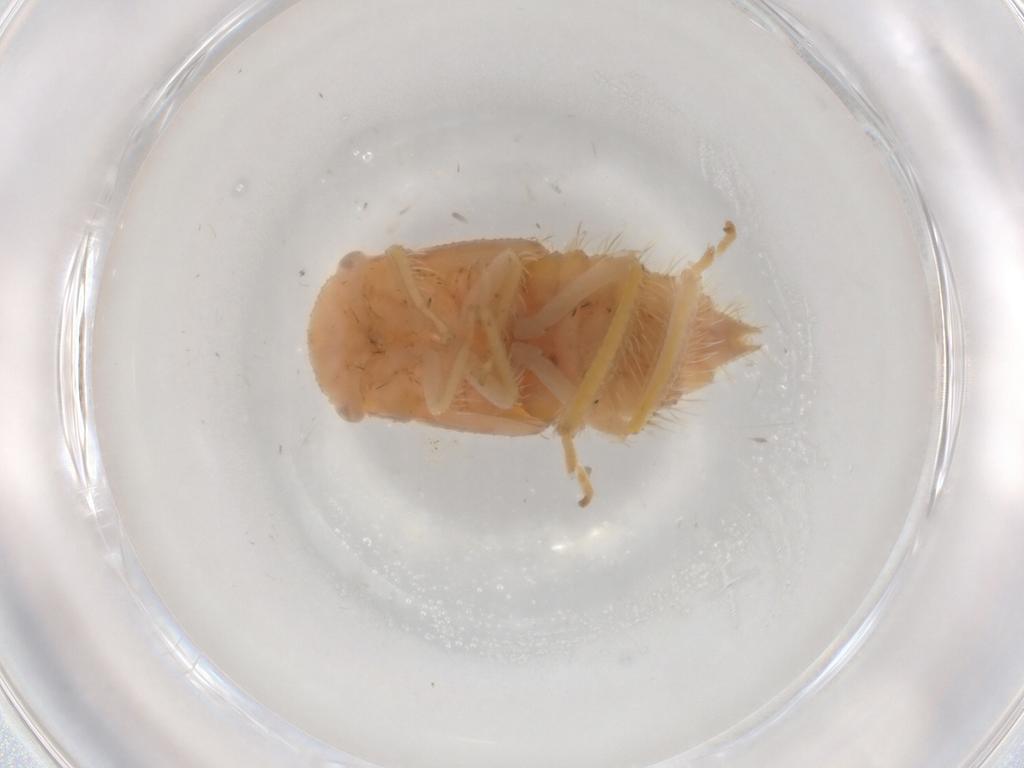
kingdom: Animalia
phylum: Arthropoda
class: Insecta
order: Hemiptera
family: Cicadellidae
